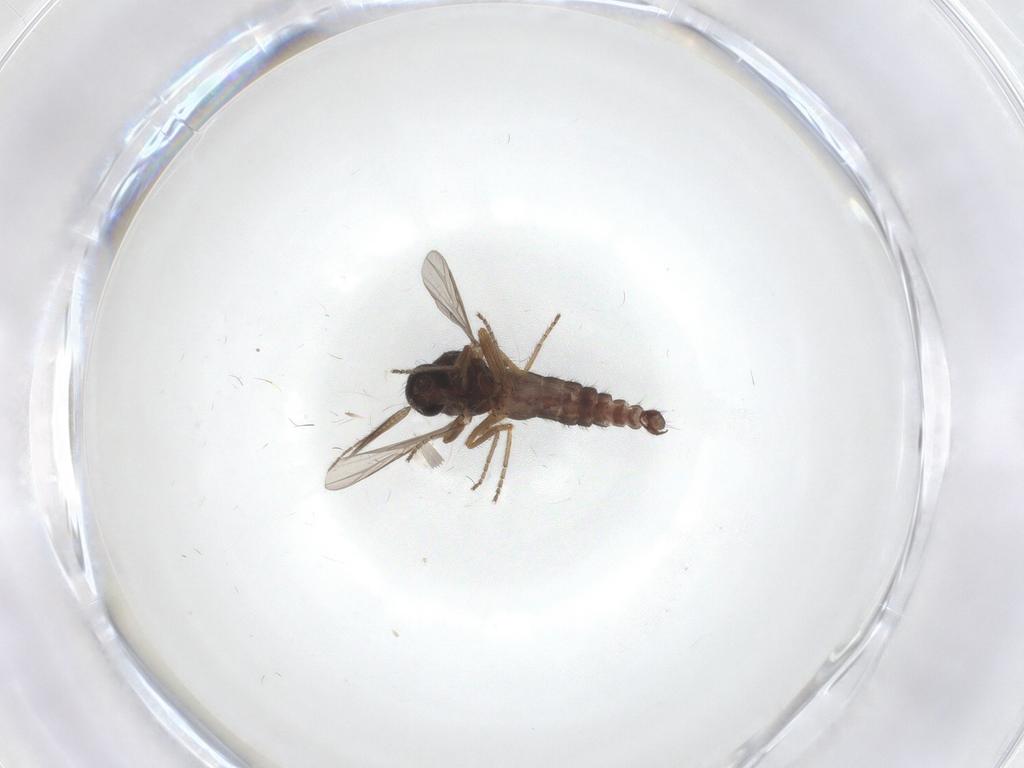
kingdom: Animalia
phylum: Arthropoda
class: Insecta
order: Diptera
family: Ceratopogonidae
